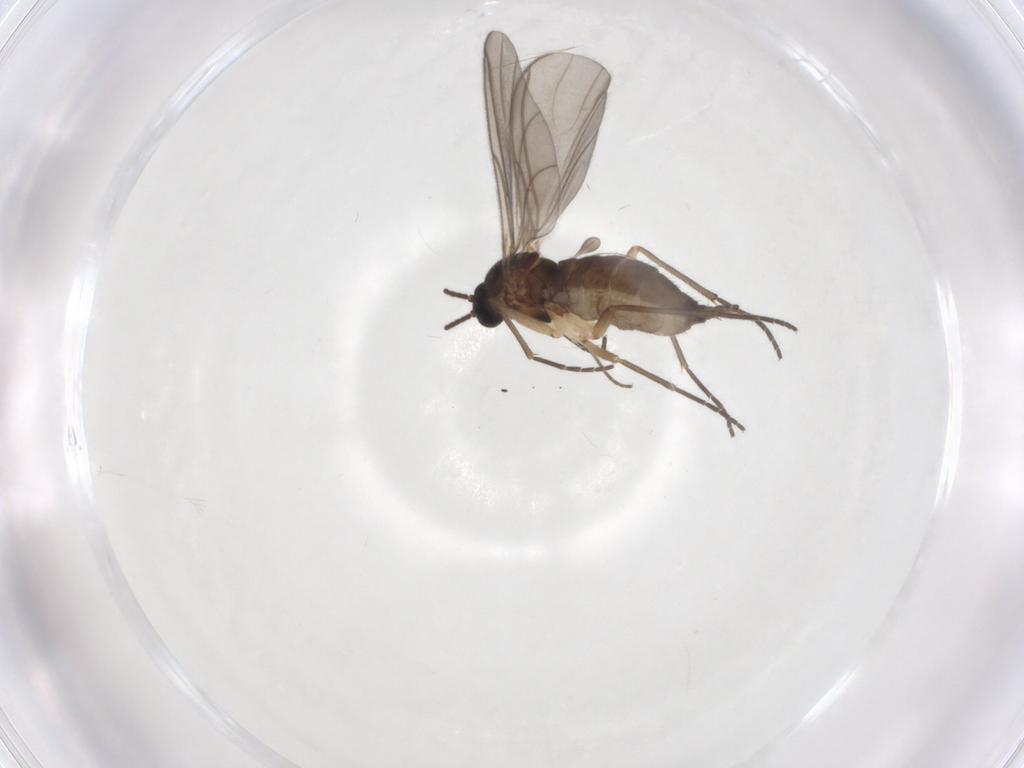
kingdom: Animalia
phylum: Arthropoda
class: Insecta
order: Diptera
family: Sciaridae
